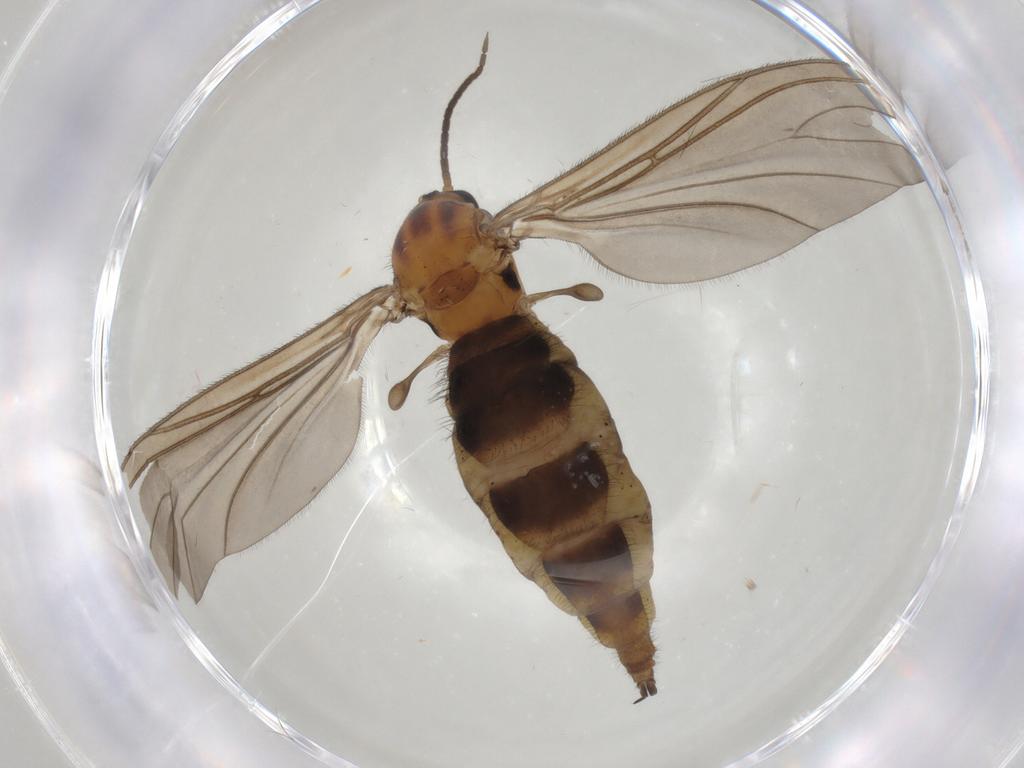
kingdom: Animalia
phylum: Arthropoda
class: Insecta
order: Diptera
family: Sciaridae
